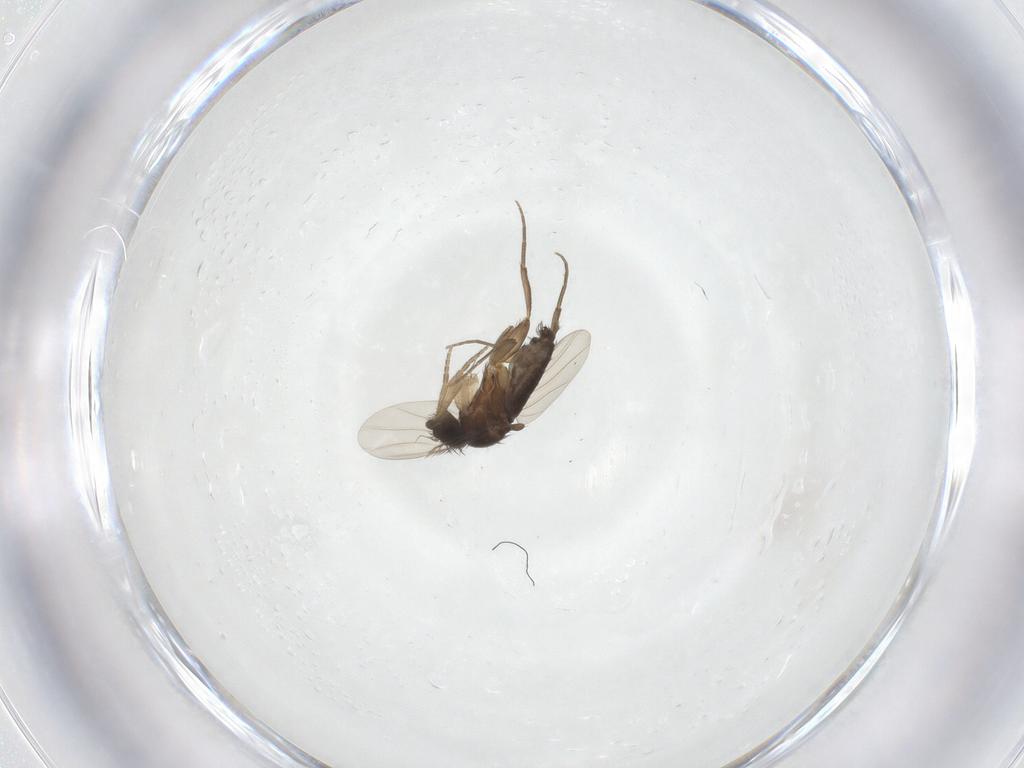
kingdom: Animalia
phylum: Arthropoda
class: Insecta
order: Diptera
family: Phoridae
